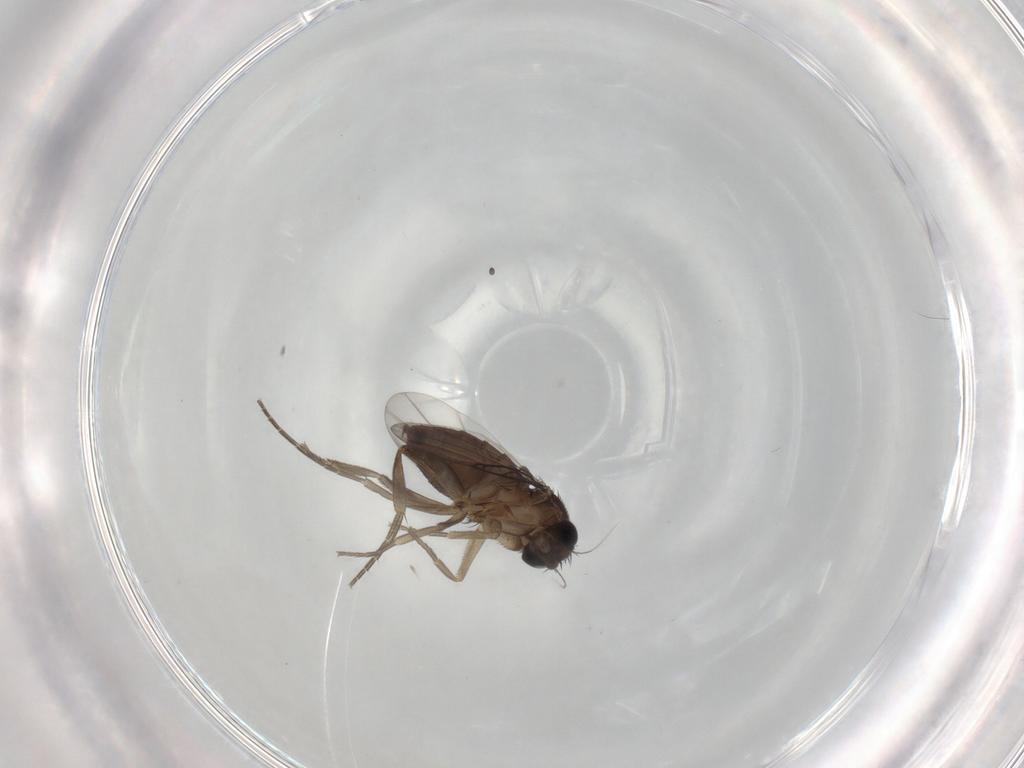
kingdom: Animalia
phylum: Arthropoda
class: Insecta
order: Diptera
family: Phoridae
